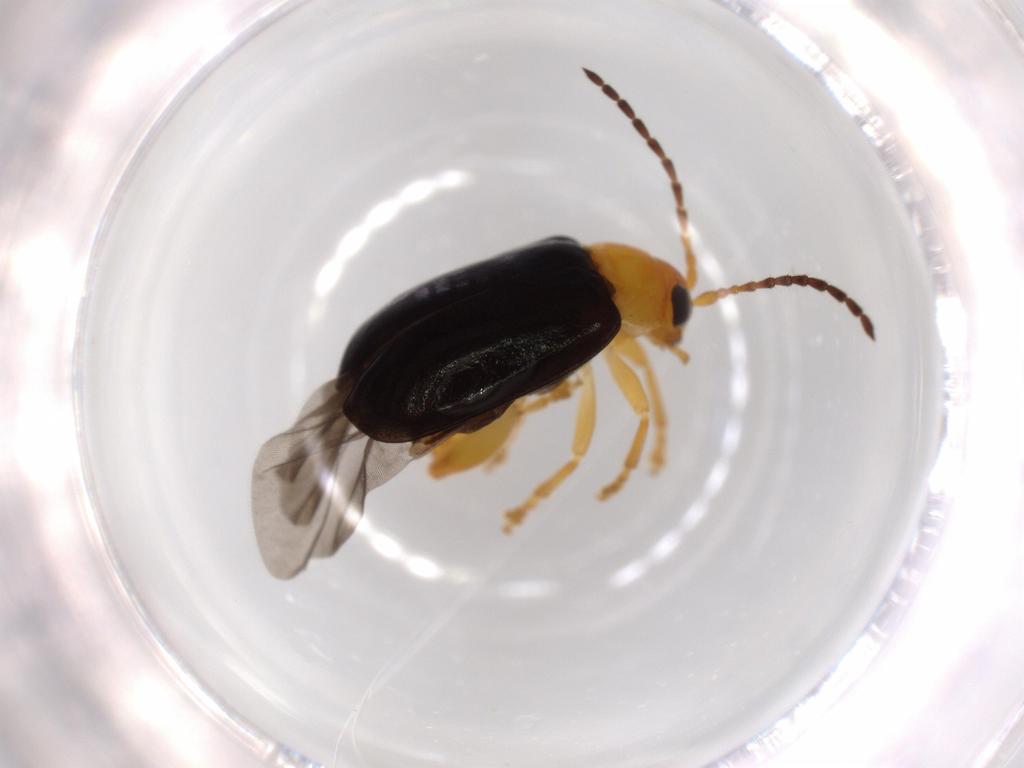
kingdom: Animalia
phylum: Arthropoda
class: Insecta
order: Coleoptera
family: Chrysomelidae
